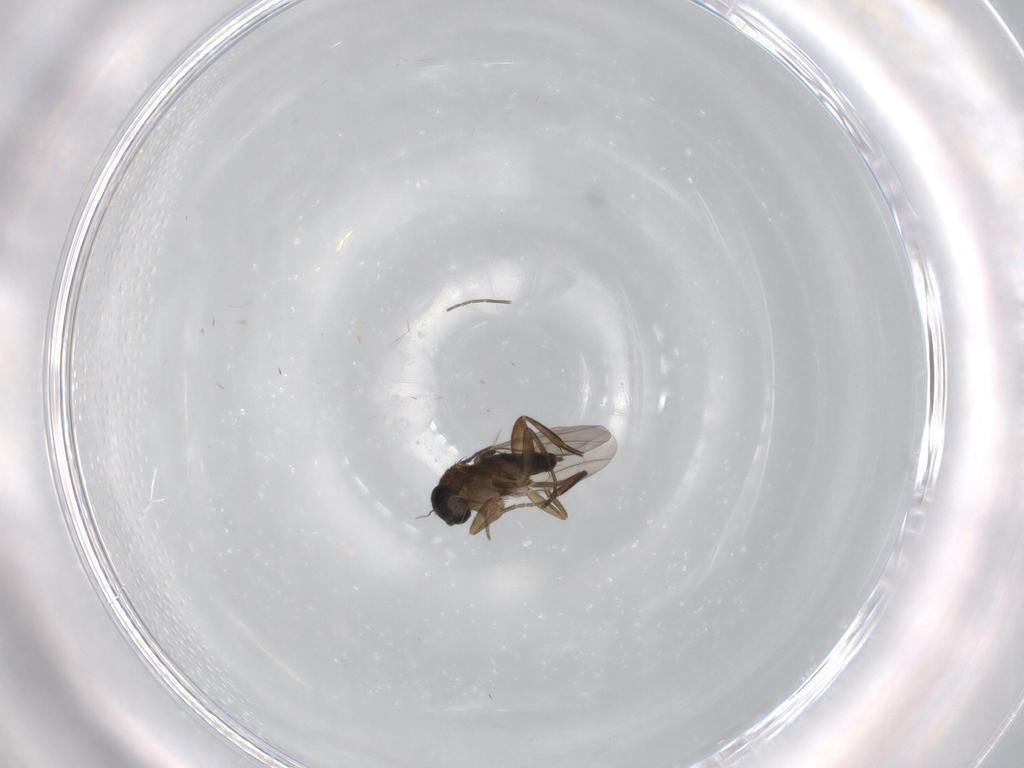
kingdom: Animalia
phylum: Arthropoda
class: Insecta
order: Diptera
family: Phoridae
